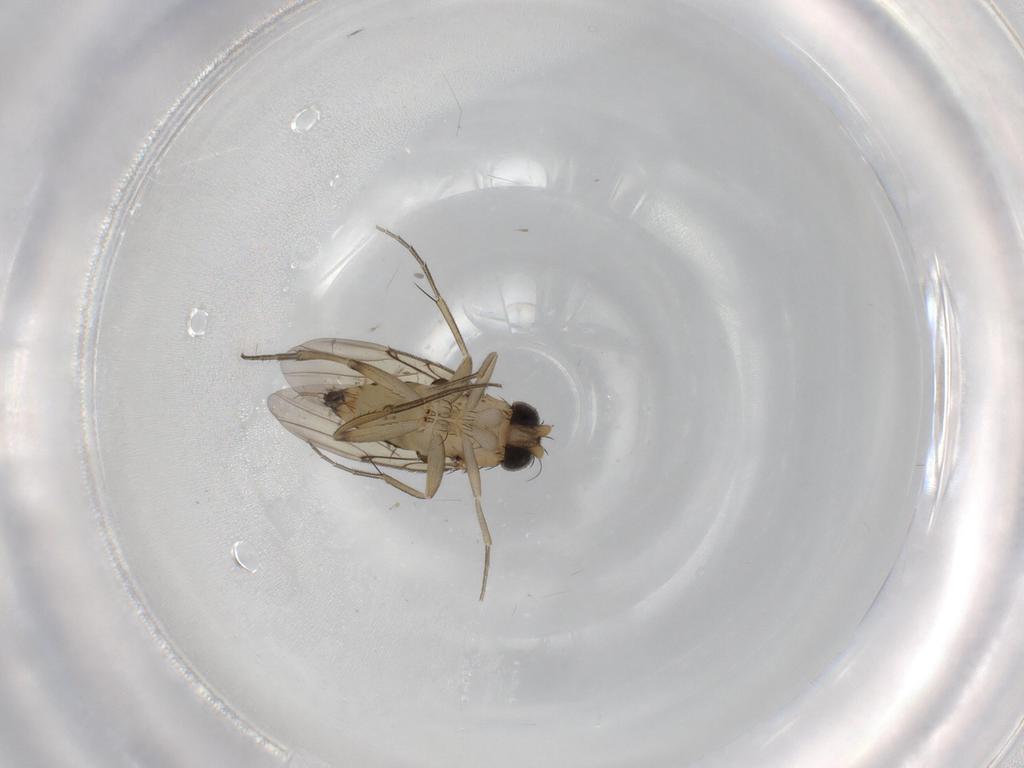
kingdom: Animalia
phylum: Arthropoda
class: Insecta
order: Diptera
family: Phoridae
